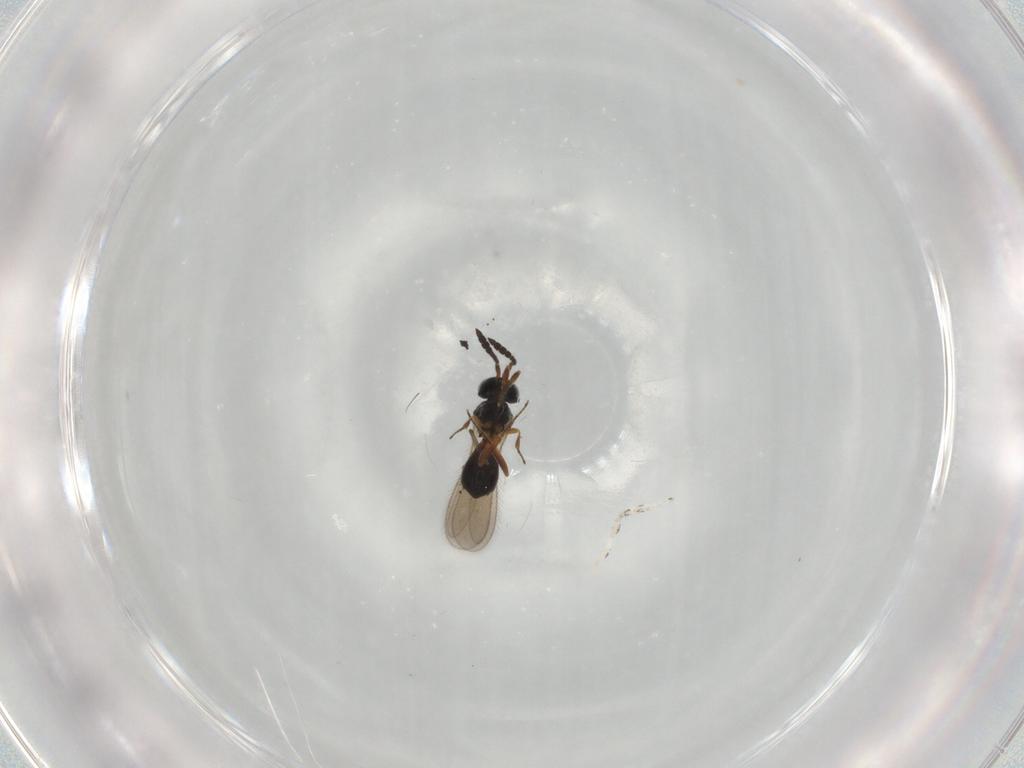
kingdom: Animalia
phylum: Arthropoda
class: Insecta
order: Hymenoptera
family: Scelionidae
